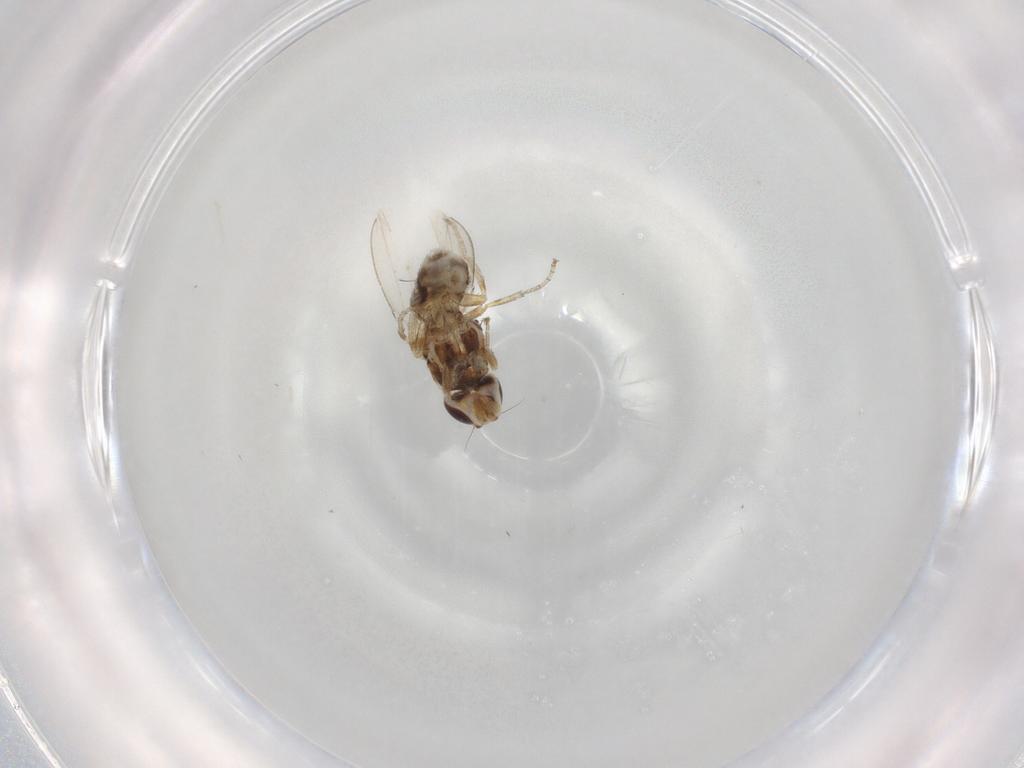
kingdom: Animalia
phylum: Arthropoda
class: Insecta
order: Diptera
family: Milichiidae
